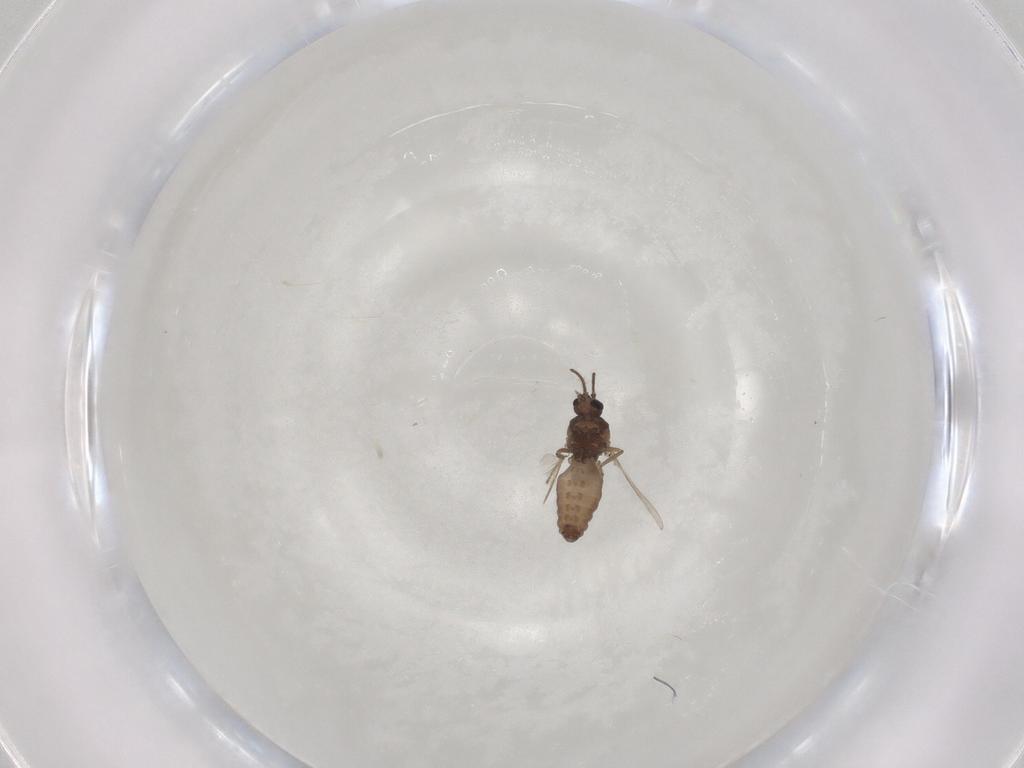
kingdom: Animalia
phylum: Arthropoda
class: Insecta
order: Diptera
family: Ceratopogonidae
